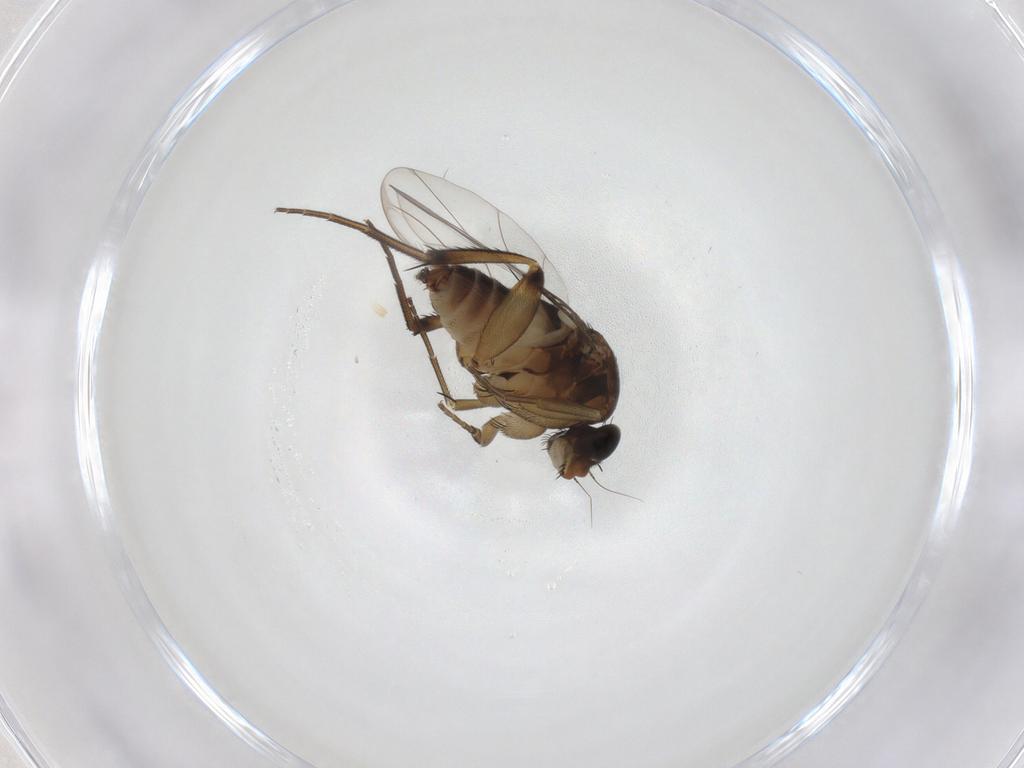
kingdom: Animalia
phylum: Arthropoda
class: Insecta
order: Diptera
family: Phoridae
